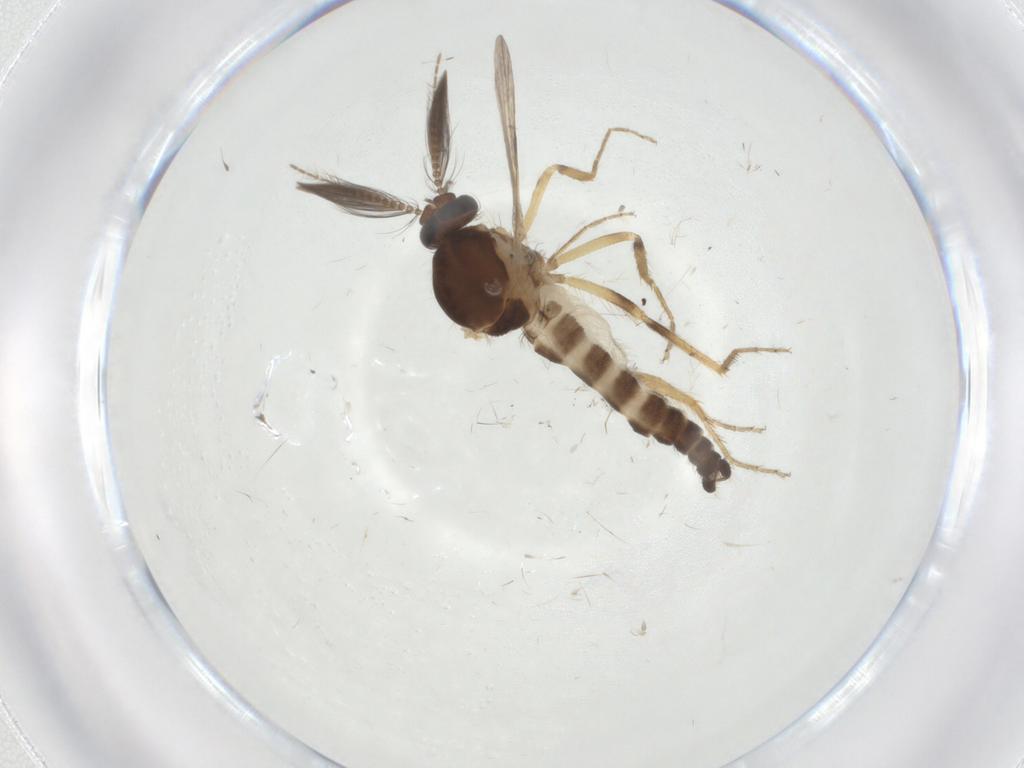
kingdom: Animalia
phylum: Arthropoda
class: Insecta
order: Diptera
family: Ceratopogonidae
